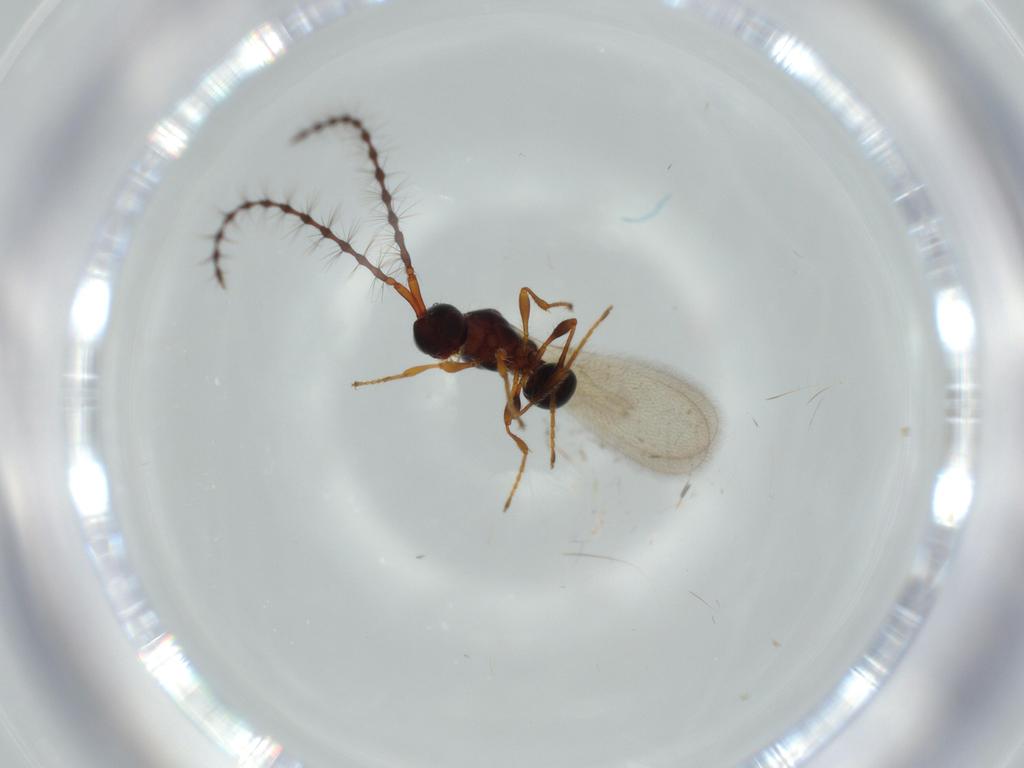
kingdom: Animalia
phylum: Arthropoda
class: Insecta
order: Hymenoptera
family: Diapriidae
